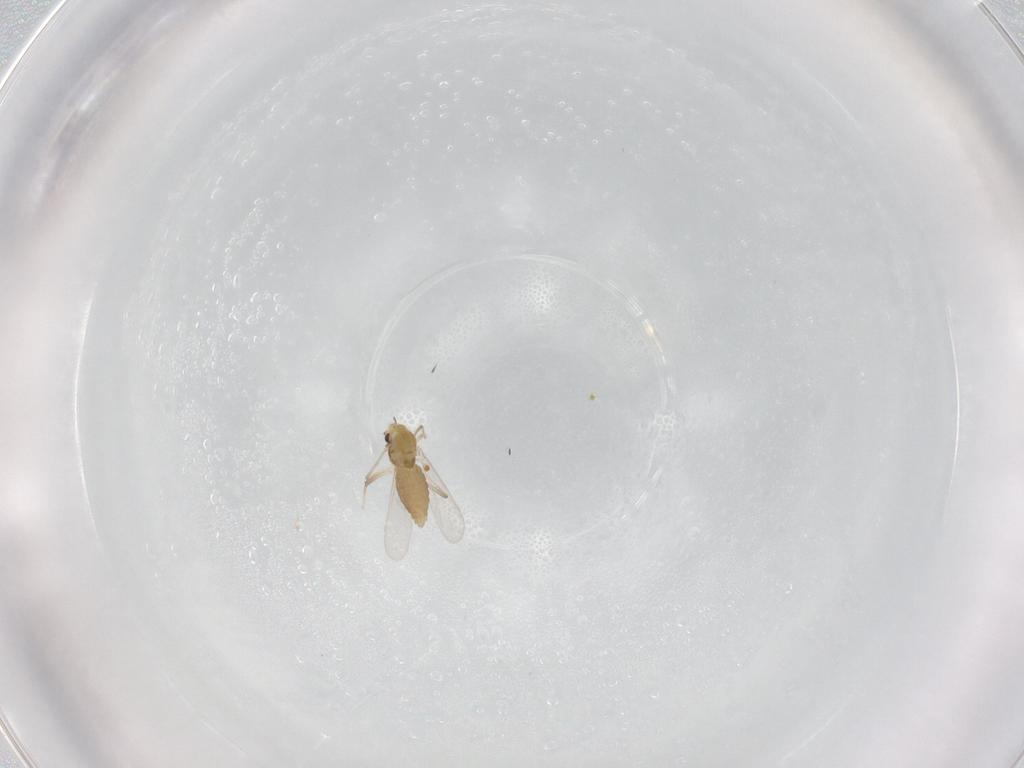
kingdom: Animalia
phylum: Arthropoda
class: Insecta
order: Diptera
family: Chironomidae
